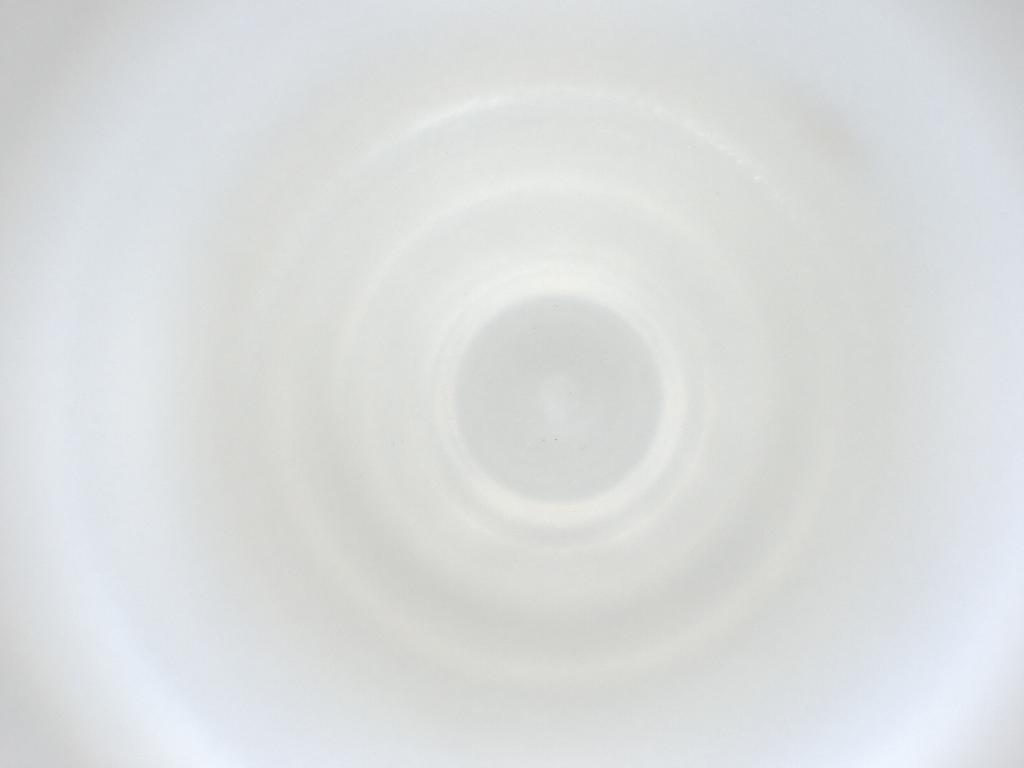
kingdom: Animalia
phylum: Arthropoda
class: Insecta
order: Diptera
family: Cecidomyiidae
